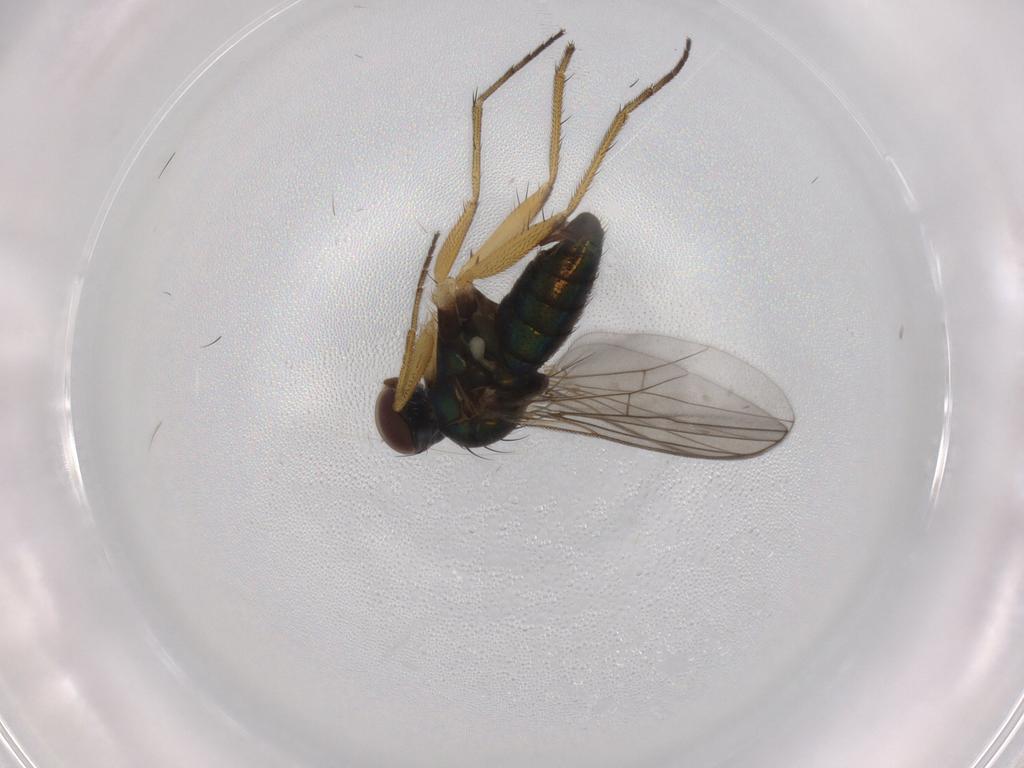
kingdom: Animalia
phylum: Arthropoda
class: Insecta
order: Diptera
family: Dolichopodidae
